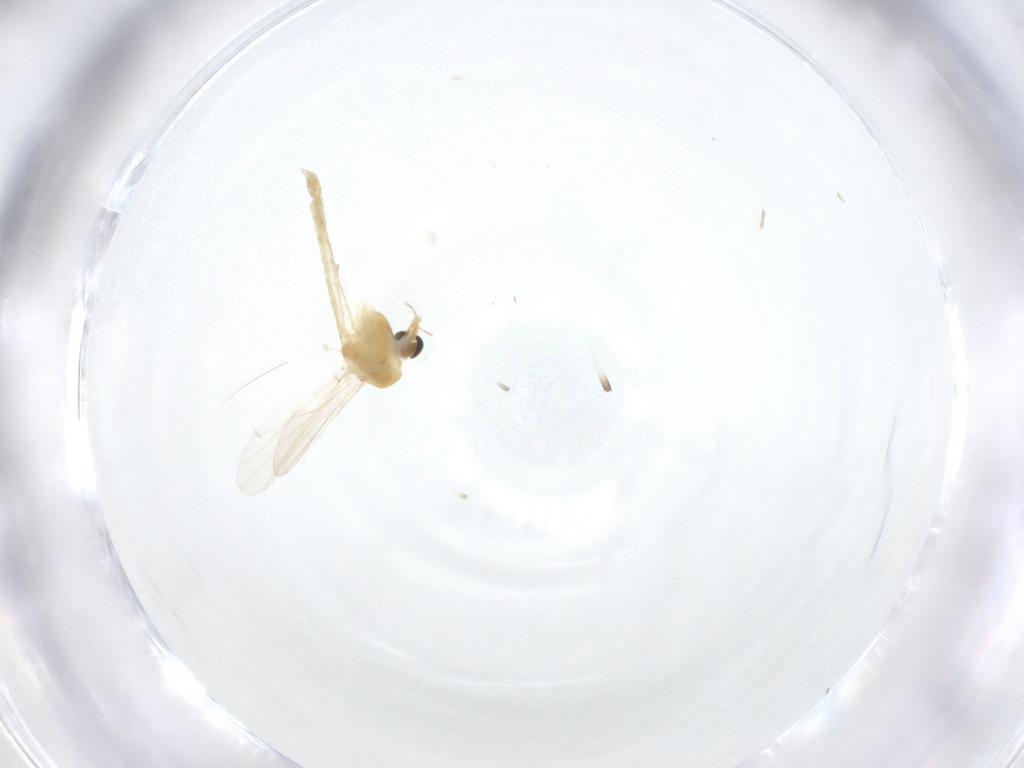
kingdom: Animalia
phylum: Arthropoda
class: Insecta
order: Diptera
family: Chironomidae
